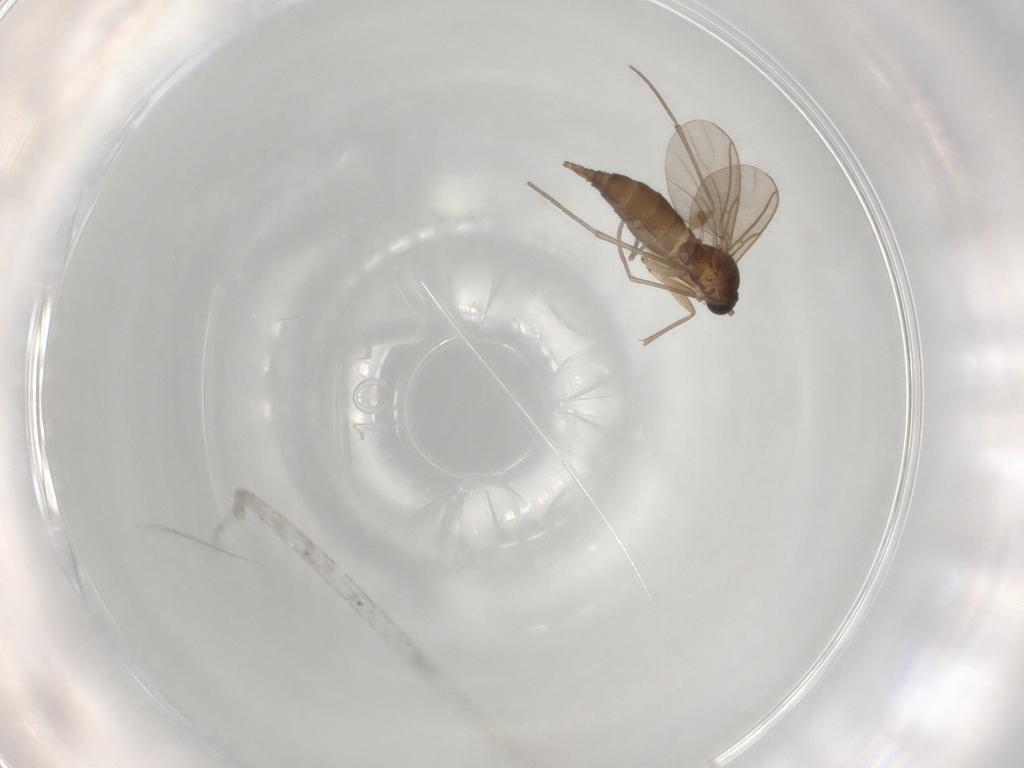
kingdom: Animalia
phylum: Arthropoda
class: Insecta
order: Diptera
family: Sciaridae
